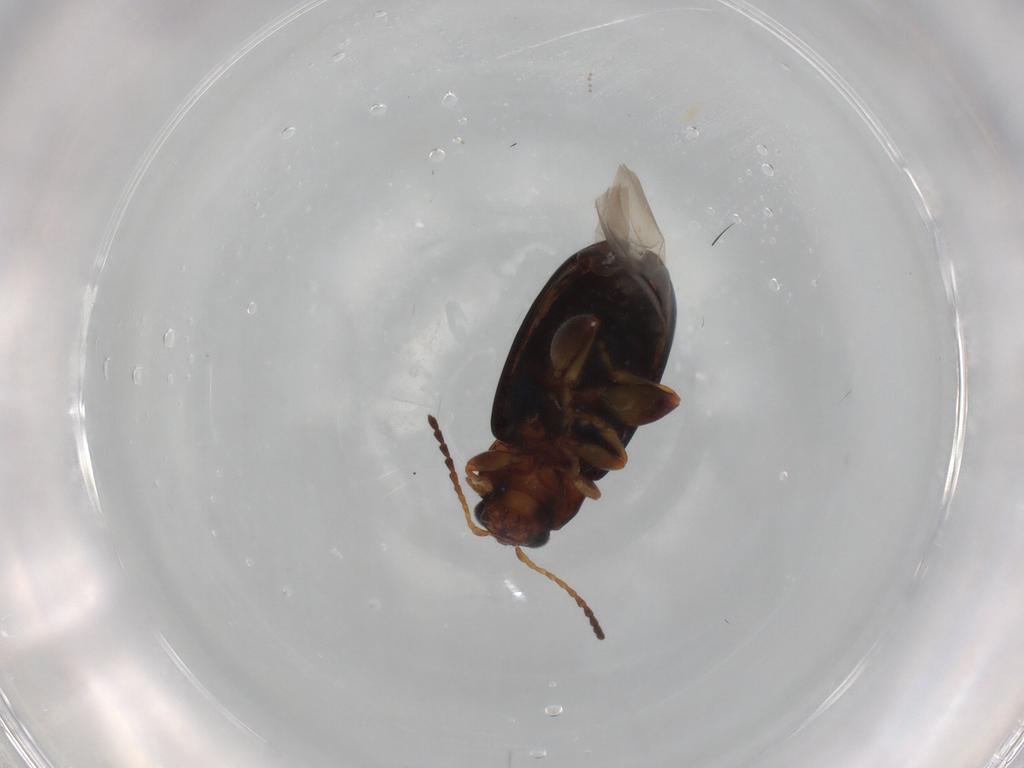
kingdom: Animalia
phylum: Arthropoda
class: Insecta
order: Coleoptera
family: Chrysomelidae
